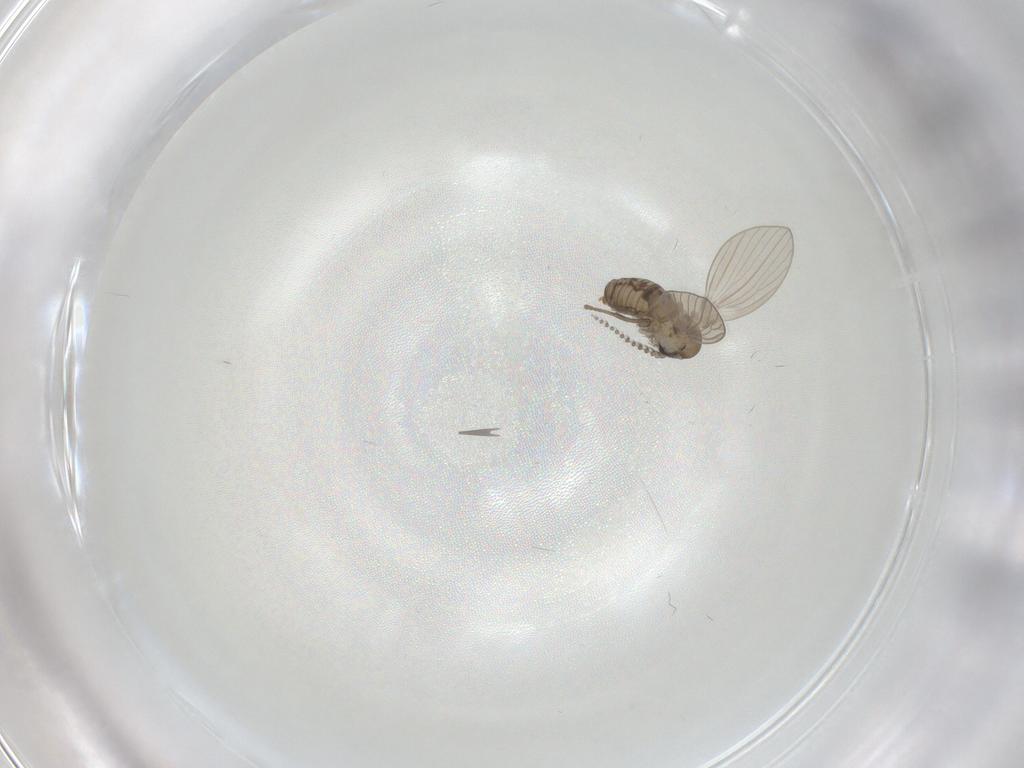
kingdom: Animalia
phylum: Arthropoda
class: Insecta
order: Diptera
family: Psychodidae
